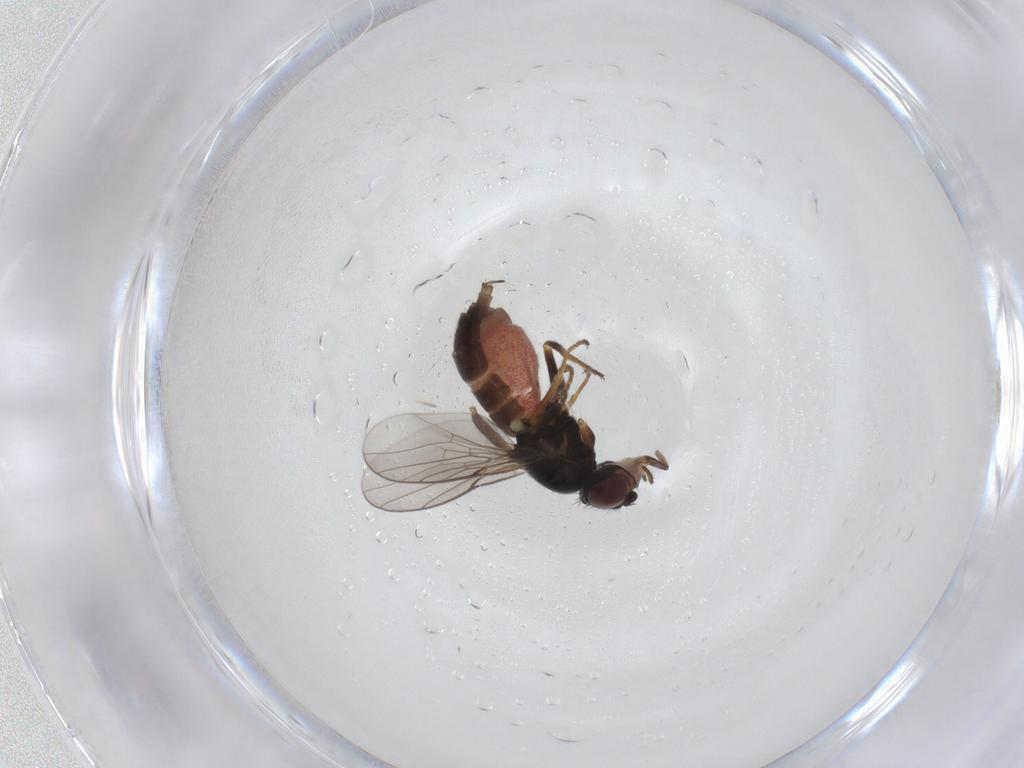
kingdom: Animalia
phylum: Arthropoda
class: Insecta
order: Diptera
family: Chloropidae
